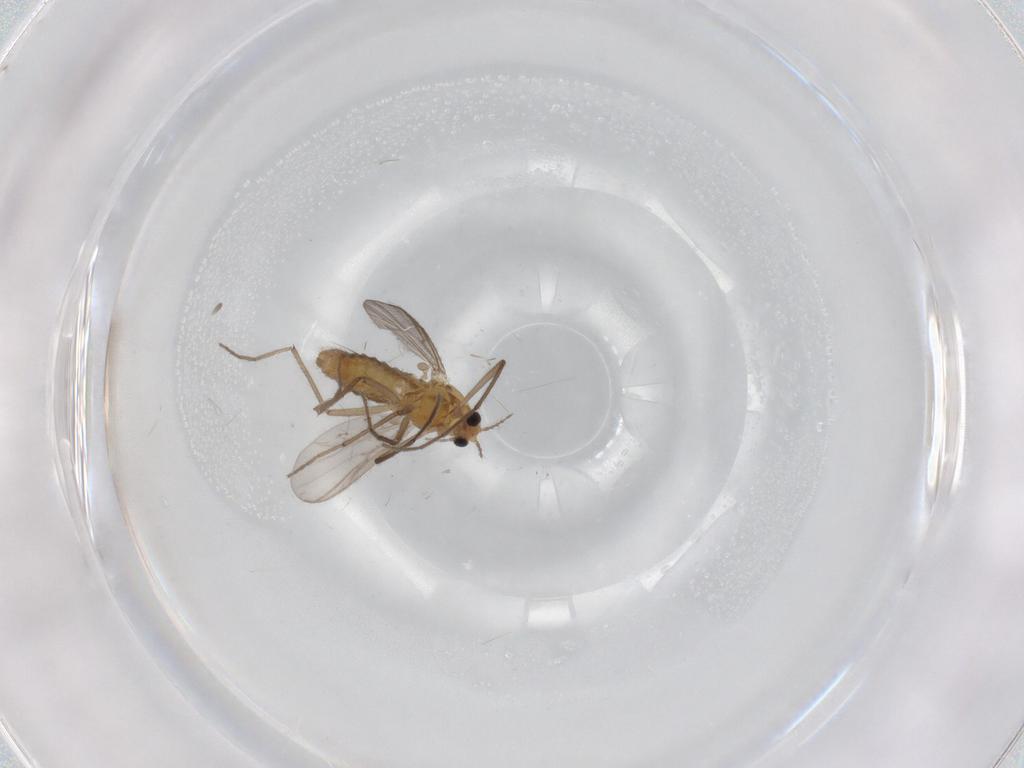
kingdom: Animalia
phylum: Arthropoda
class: Insecta
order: Diptera
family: Chironomidae
